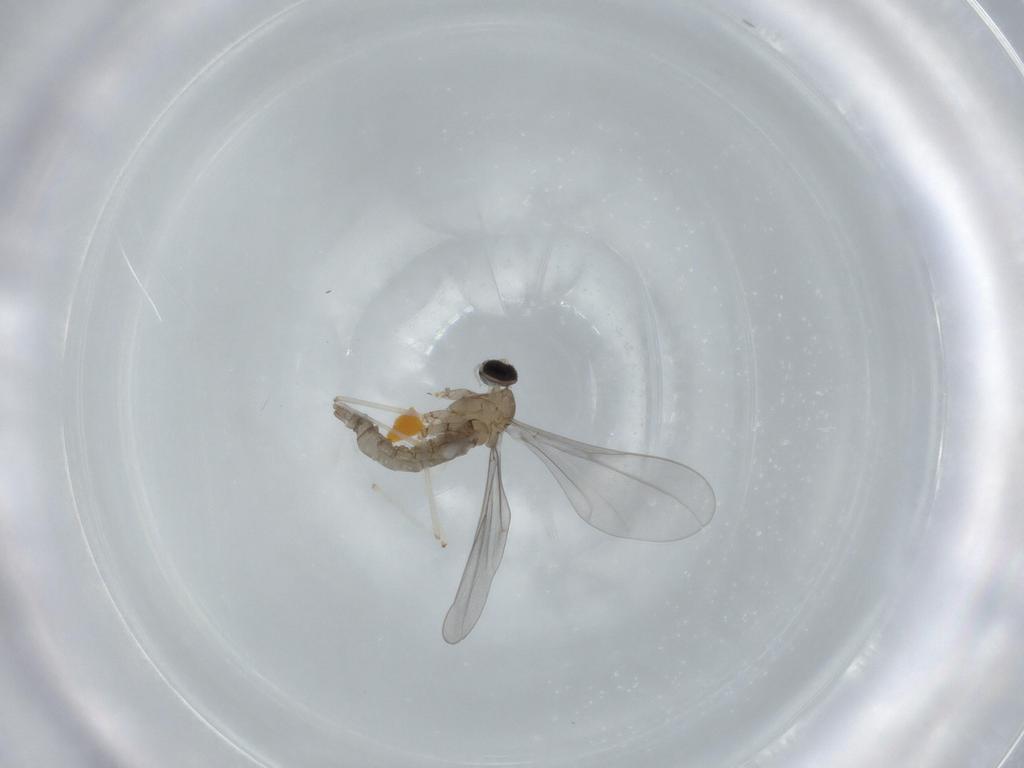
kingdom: Animalia
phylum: Arthropoda
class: Insecta
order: Diptera
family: Cecidomyiidae
